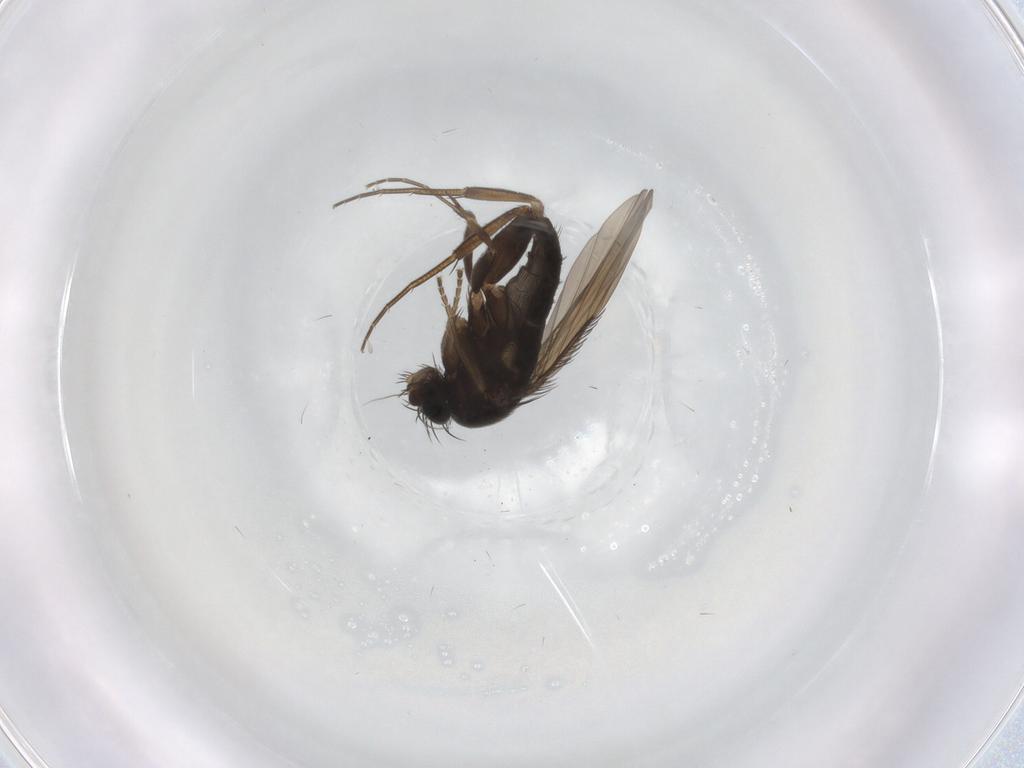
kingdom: Animalia
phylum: Arthropoda
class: Insecta
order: Diptera
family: Phoridae
